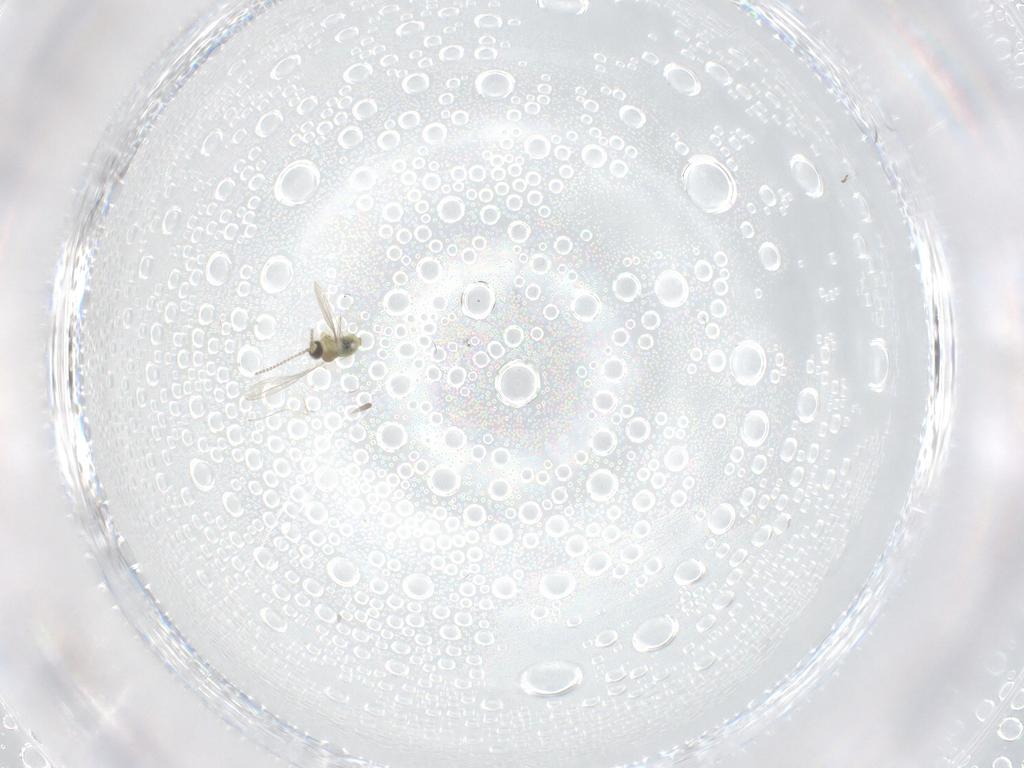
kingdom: Animalia
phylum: Arthropoda
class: Insecta
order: Diptera
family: Cecidomyiidae
